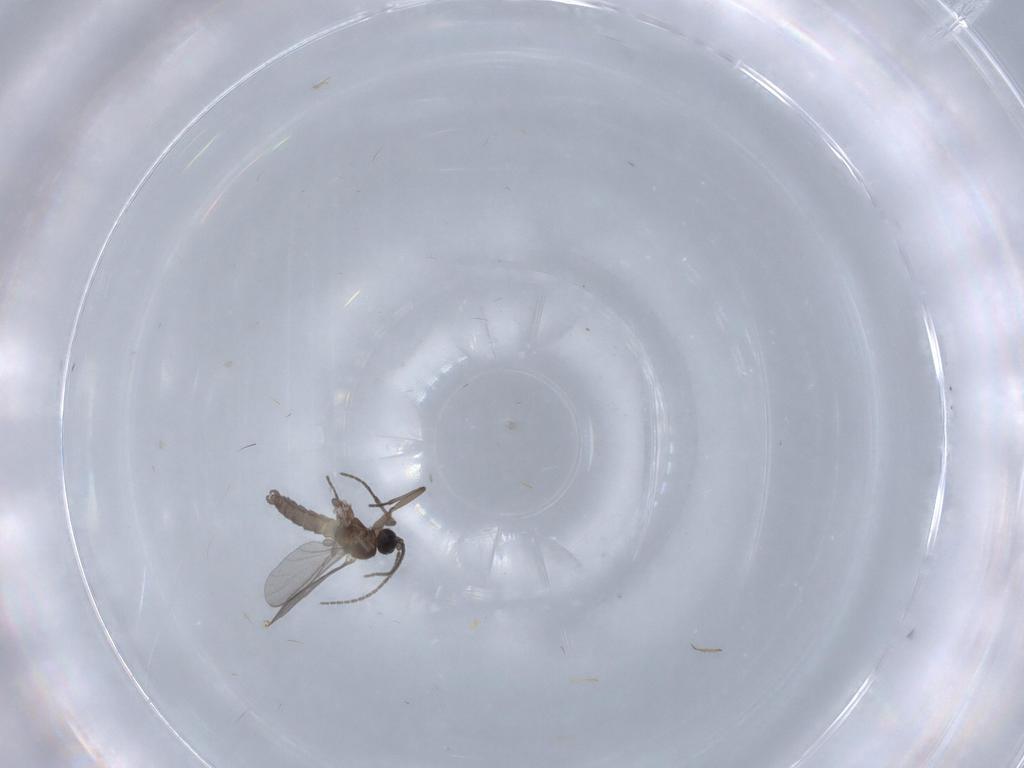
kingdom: Animalia
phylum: Arthropoda
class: Insecta
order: Diptera
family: Sciaridae
